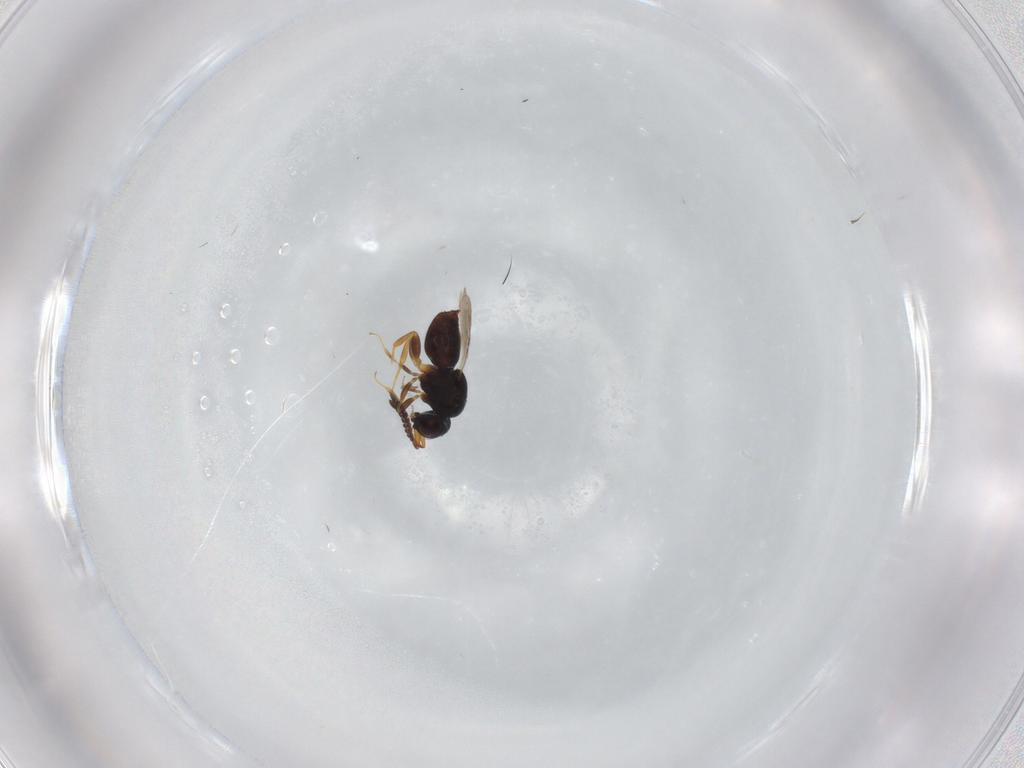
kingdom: Animalia
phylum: Arthropoda
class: Insecta
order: Hymenoptera
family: Ceraphronidae
